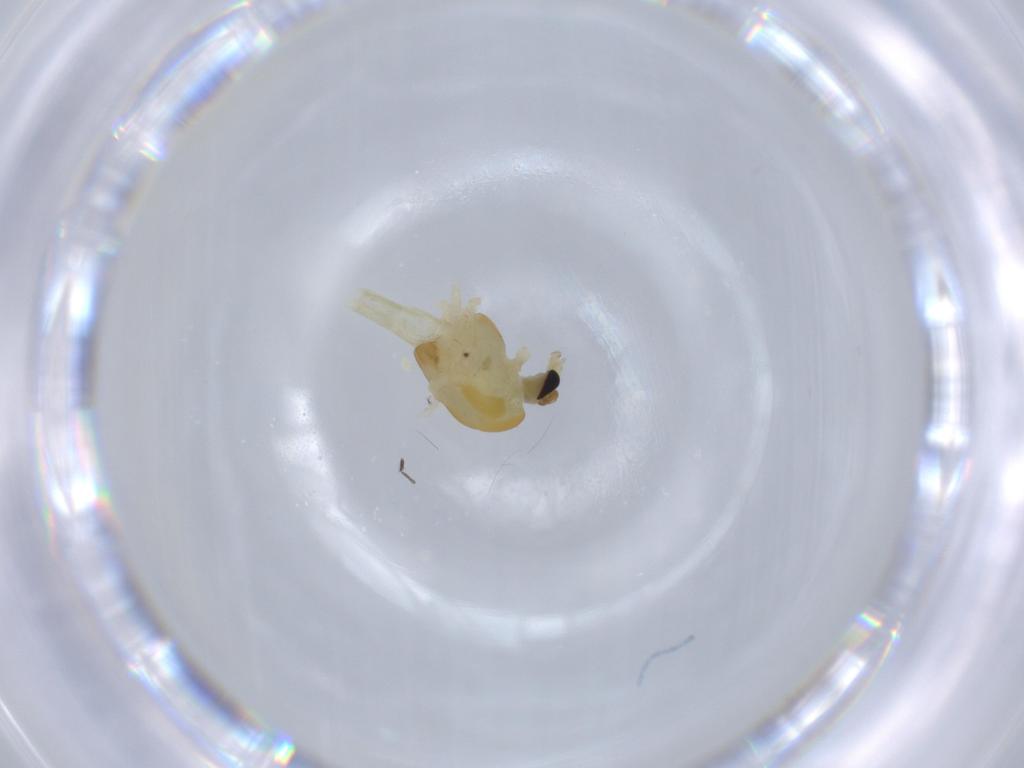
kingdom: Animalia
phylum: Arthropoda
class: Insecta
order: Diptera
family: Chironomidae
